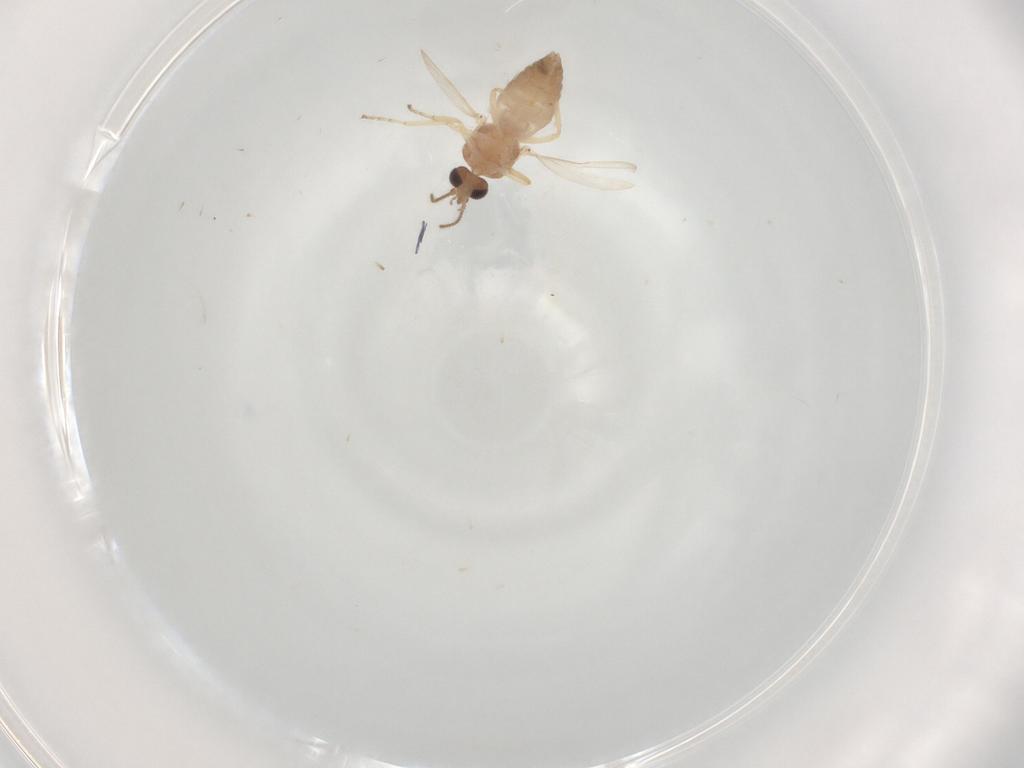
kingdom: Animalia
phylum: Arthropoda
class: Insecta
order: Diptera
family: Ceratopogonidae
